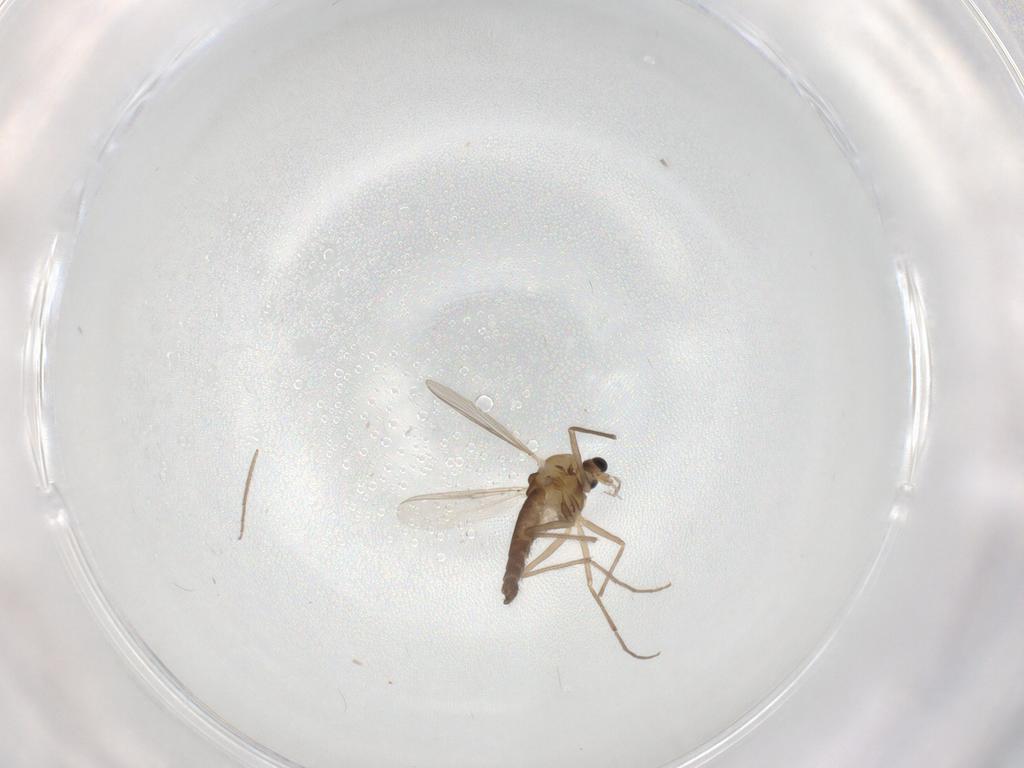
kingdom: Animalia
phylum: Arthropoda
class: Insecta
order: Diptera
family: Chironomidae
